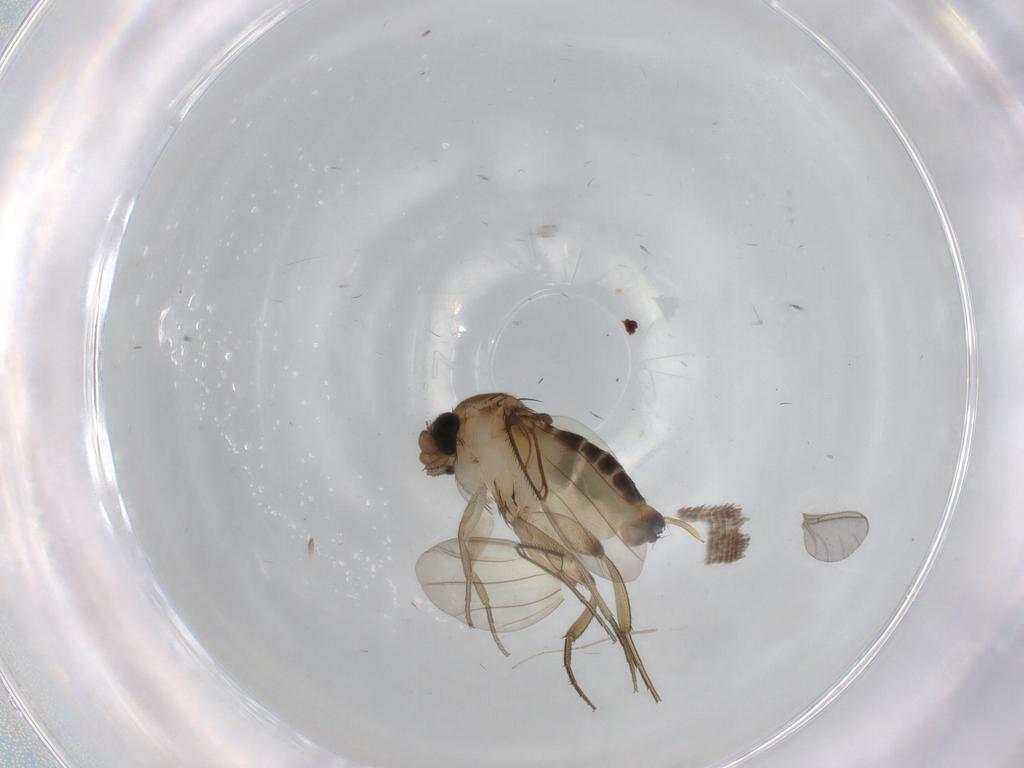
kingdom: Animalia
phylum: Arthropoda
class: Insecta
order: Diptera
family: Sciaridae
